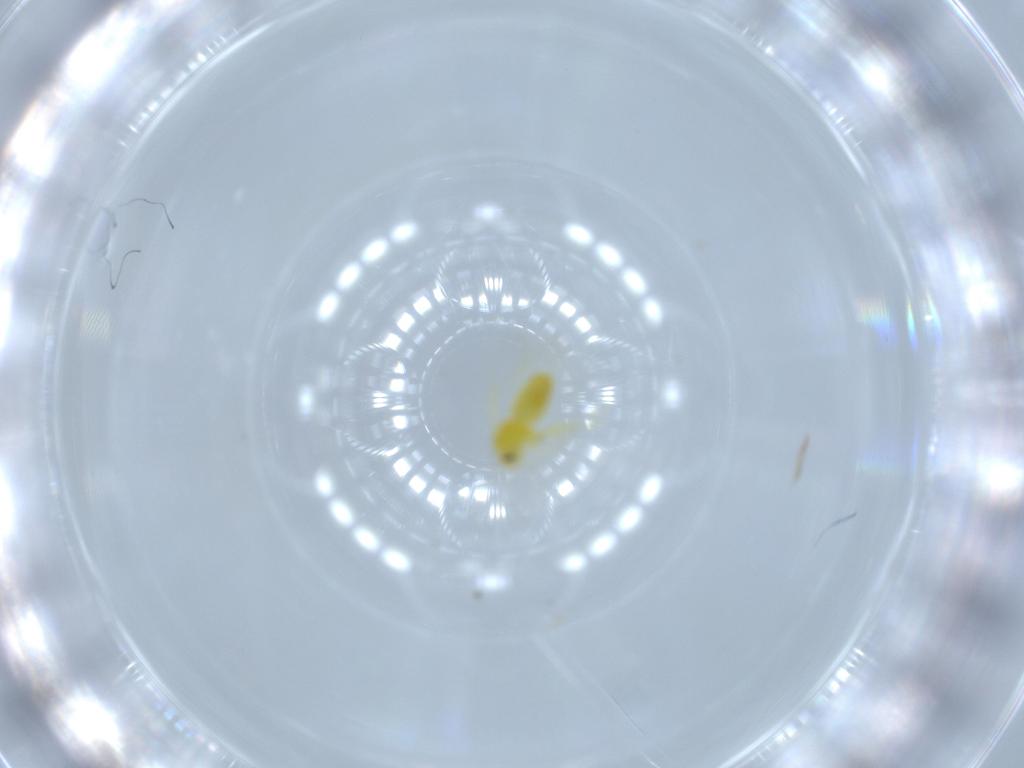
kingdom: Animalia
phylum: Arthropoda
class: Insecta
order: Hemiptera
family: Aleyrodidae
